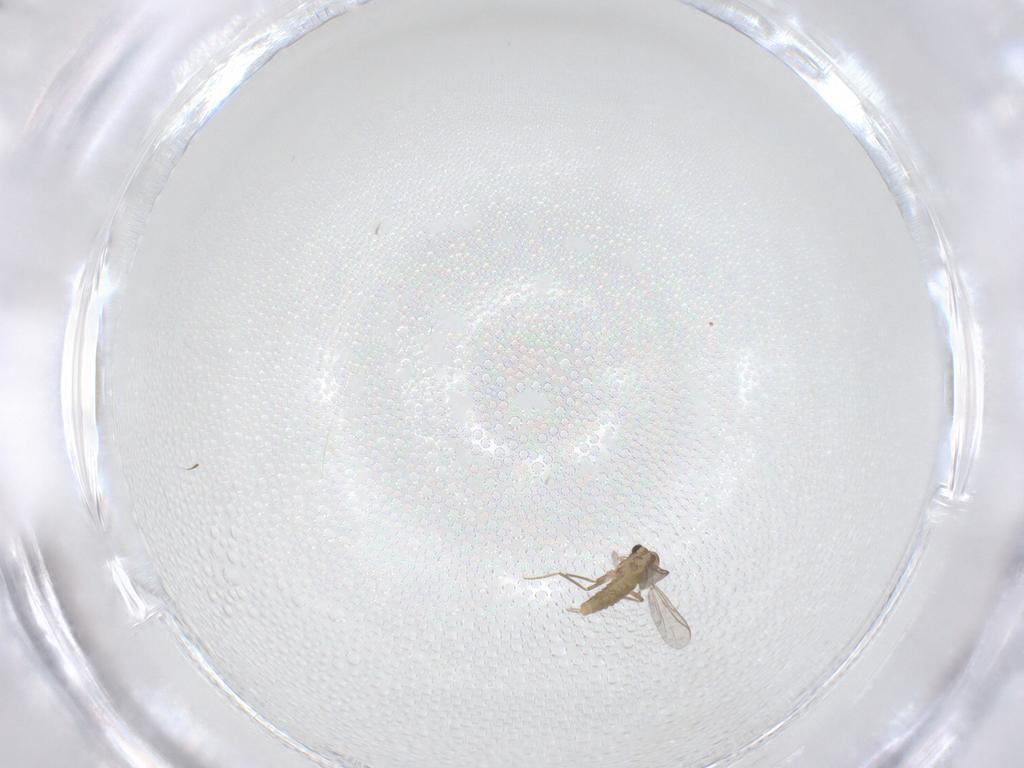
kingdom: Animalia
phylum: Arthropoda
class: Insecta
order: Diptera
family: Chironomidae
